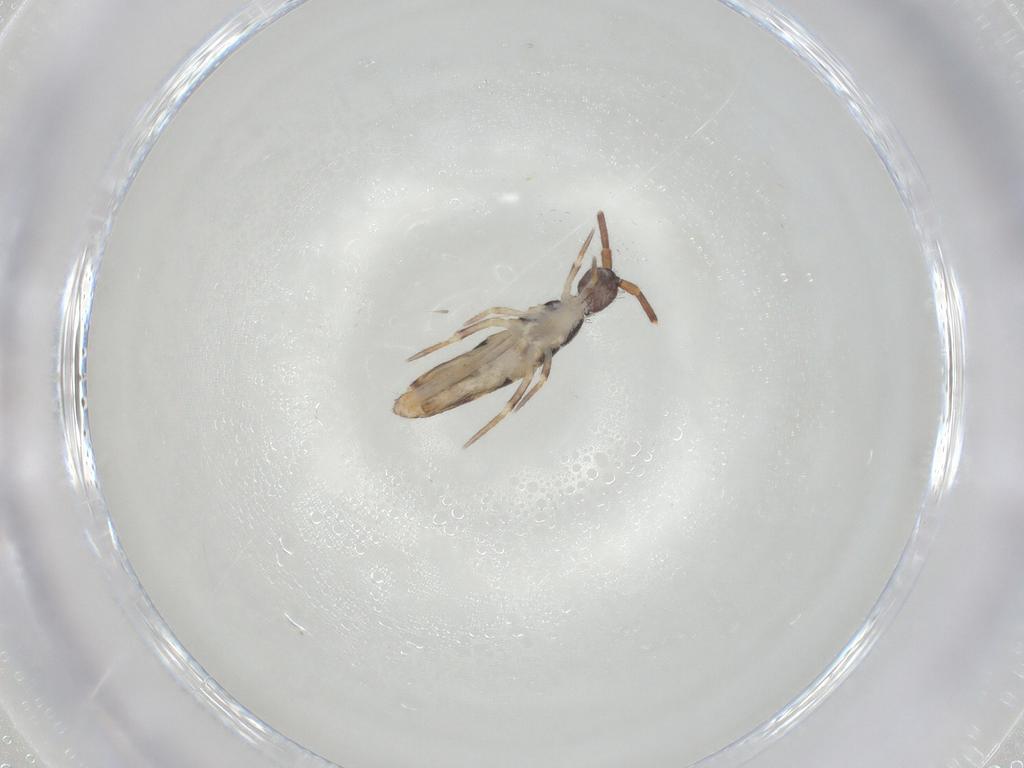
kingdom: Animalia
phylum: Arthropoda
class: Collembola
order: Entomobryomorpha
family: Entomobryidae
